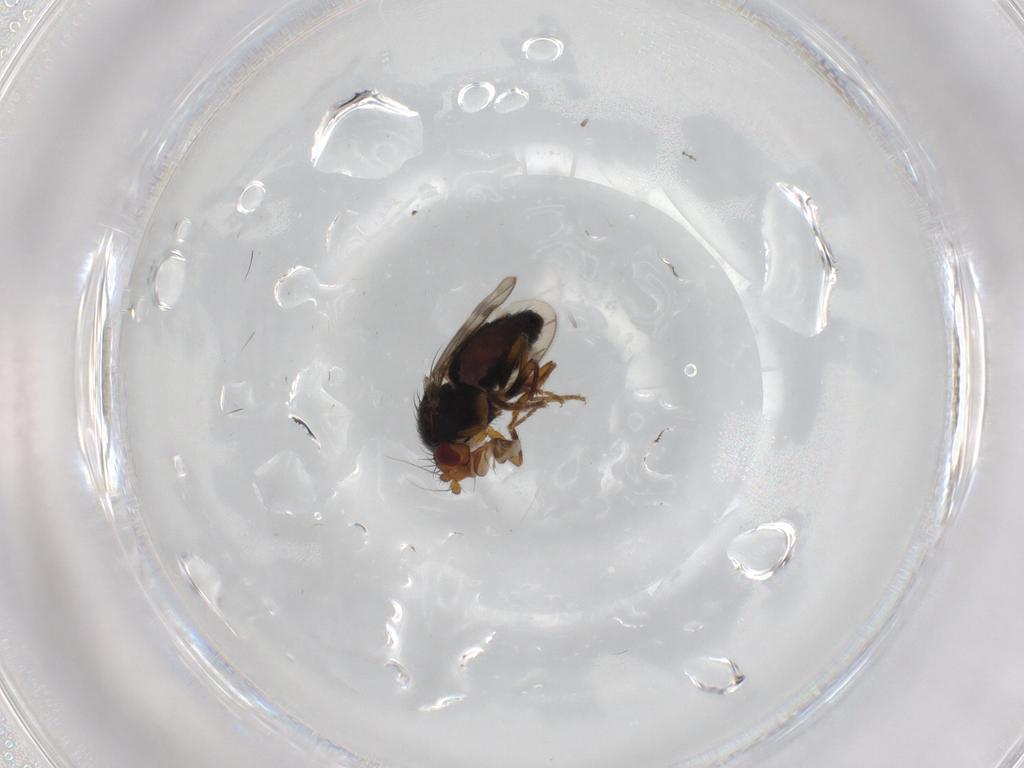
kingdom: Animalia
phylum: Arthropoda
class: Insecta
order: Diptera
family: Sphaeroceridae
